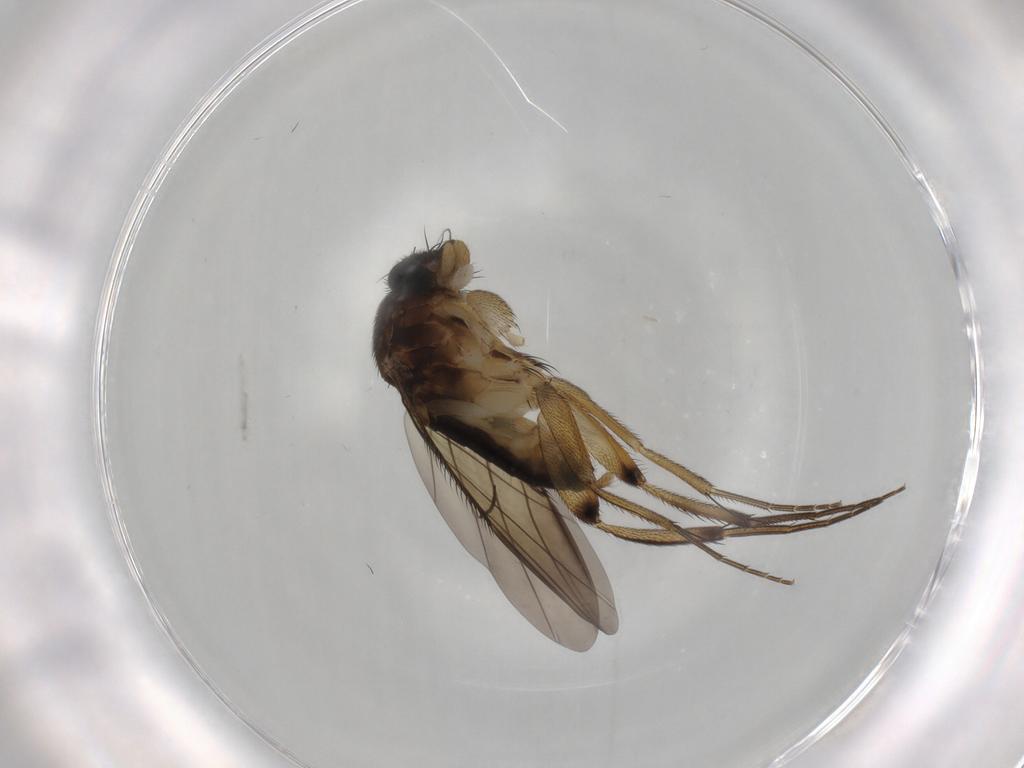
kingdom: Animalia
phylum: Arthropoda
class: Insecta
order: Diptera
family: Phoridae
